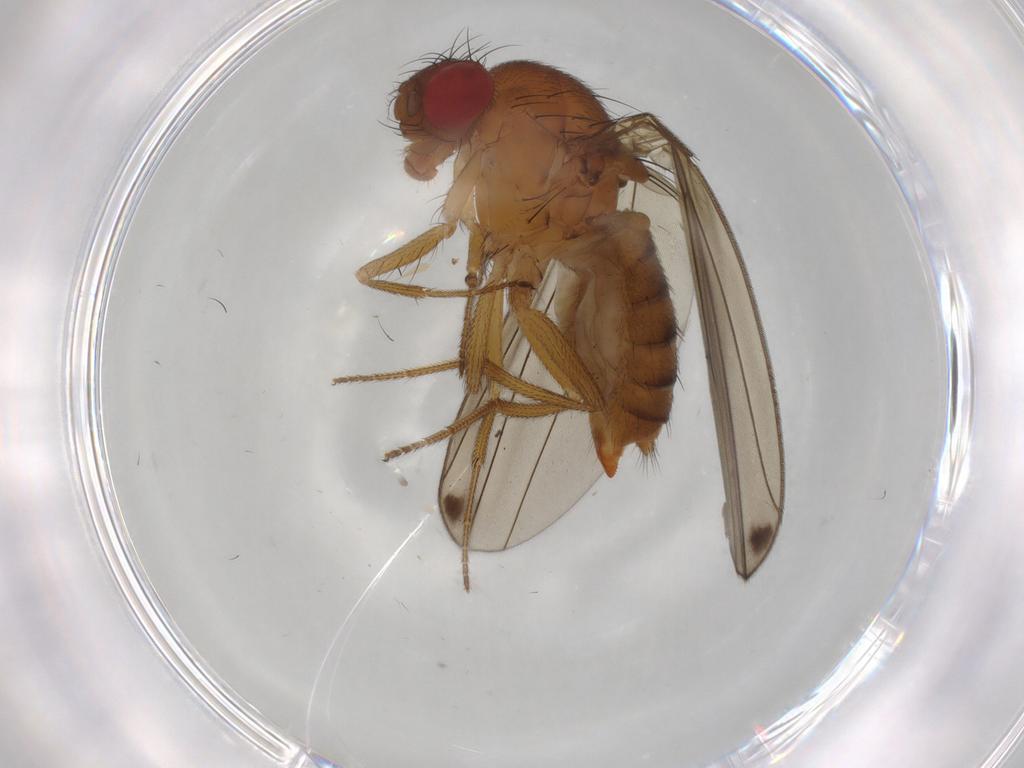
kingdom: Animalia
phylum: Arthropoda
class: Insecta
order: Diptera
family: Drosophilidae
